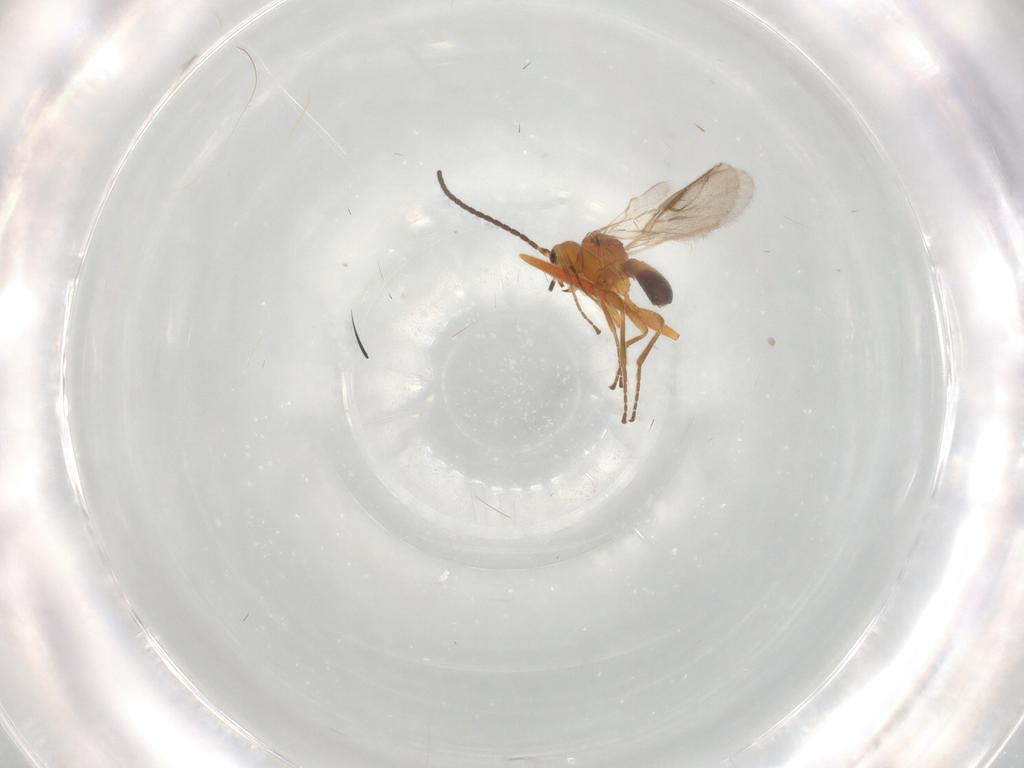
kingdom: Animalia
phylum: Arthropoda
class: Insecta
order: Hymenoptera
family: Braconidae
